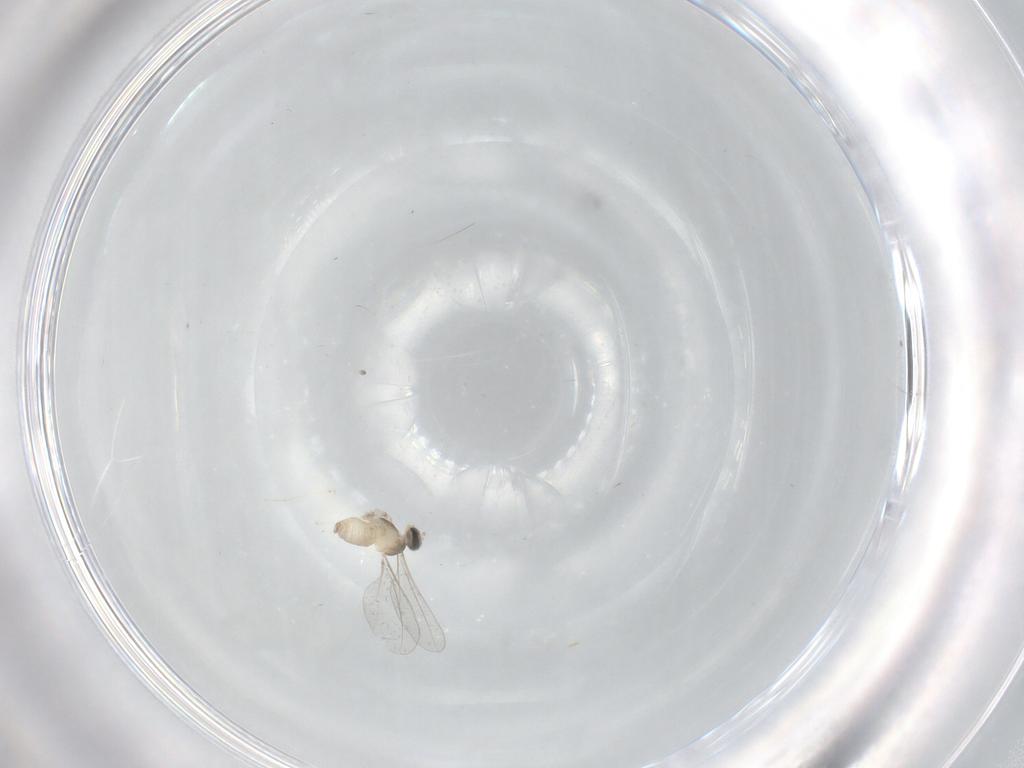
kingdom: Animalia
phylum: Arthropoda
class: Insecta
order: Diptera
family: Cecidomyiidae
